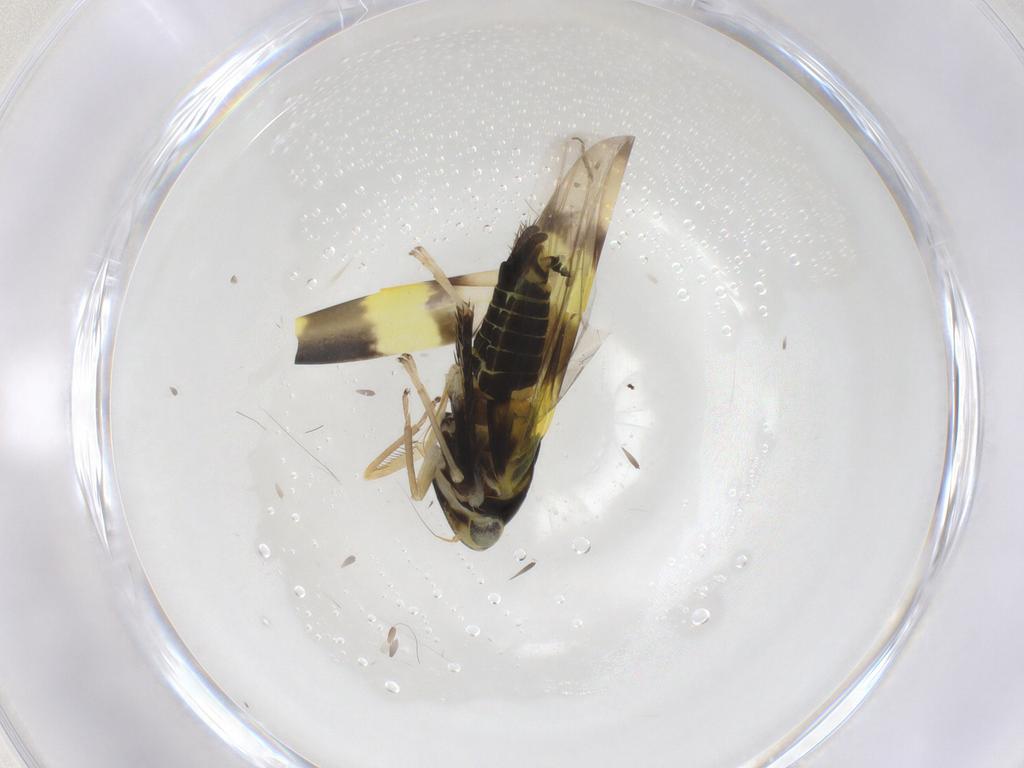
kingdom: Animalia
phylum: Arthropoda
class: Insecta
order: Hemiptera
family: Cicadellidae
